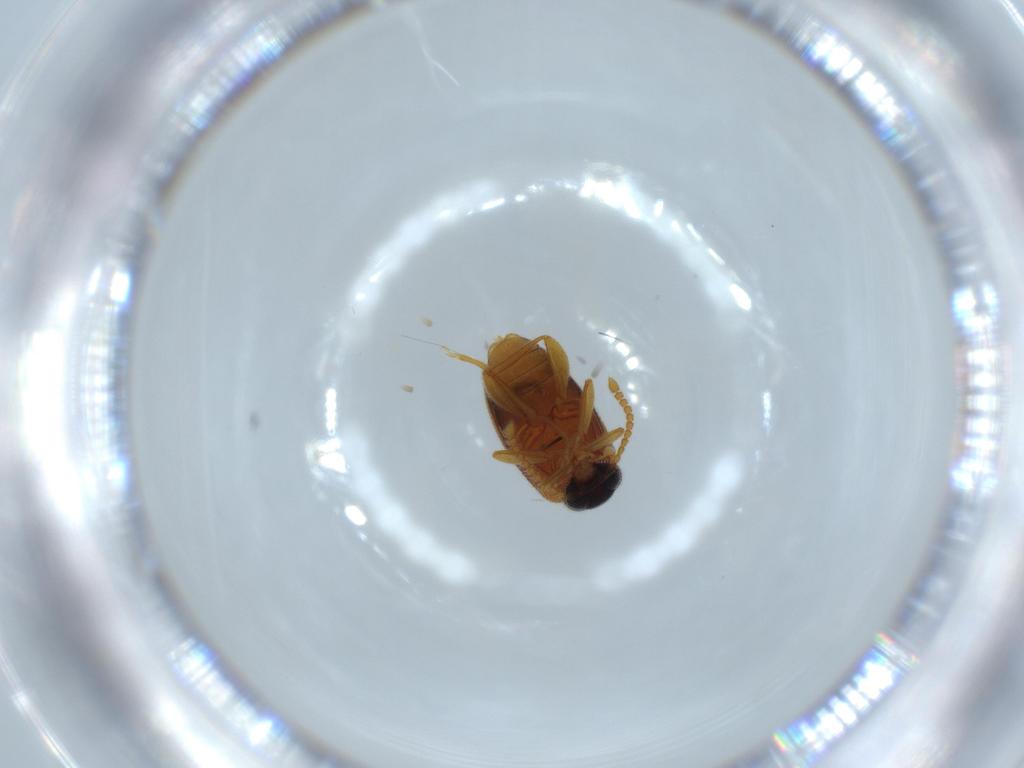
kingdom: Animalia
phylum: Arthropoda
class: Insecta
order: Coleoptera
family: Aderidae
